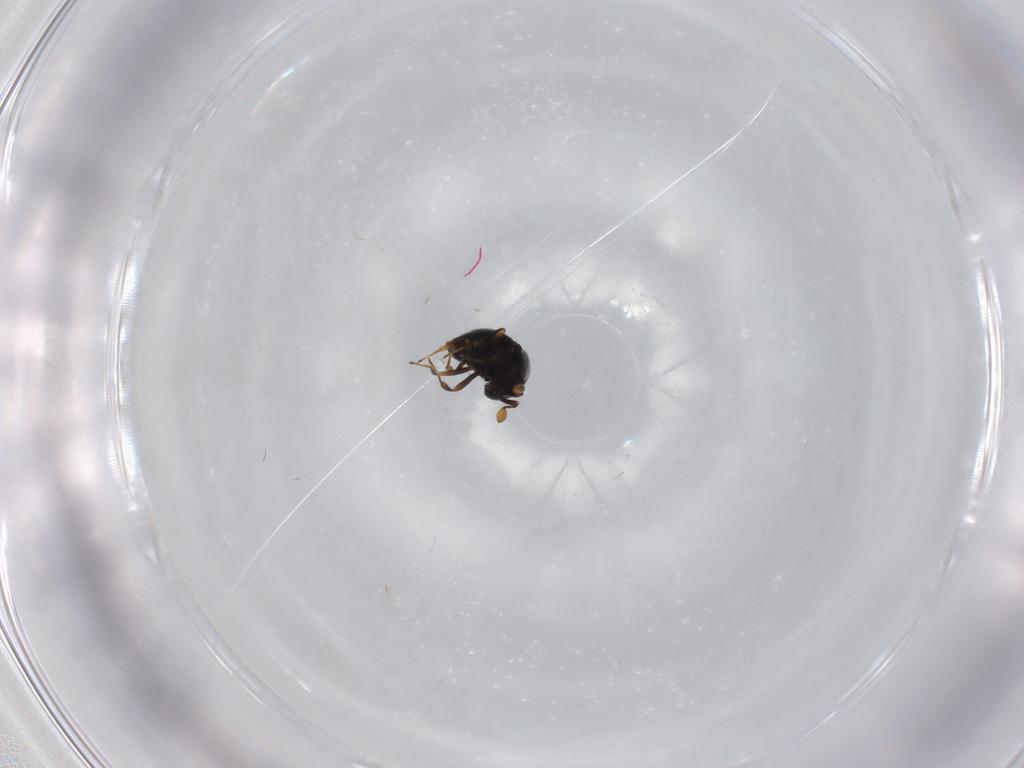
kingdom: Animalia
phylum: Arthropoda
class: Insecta
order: Hymenoptera
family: Scelionidae
